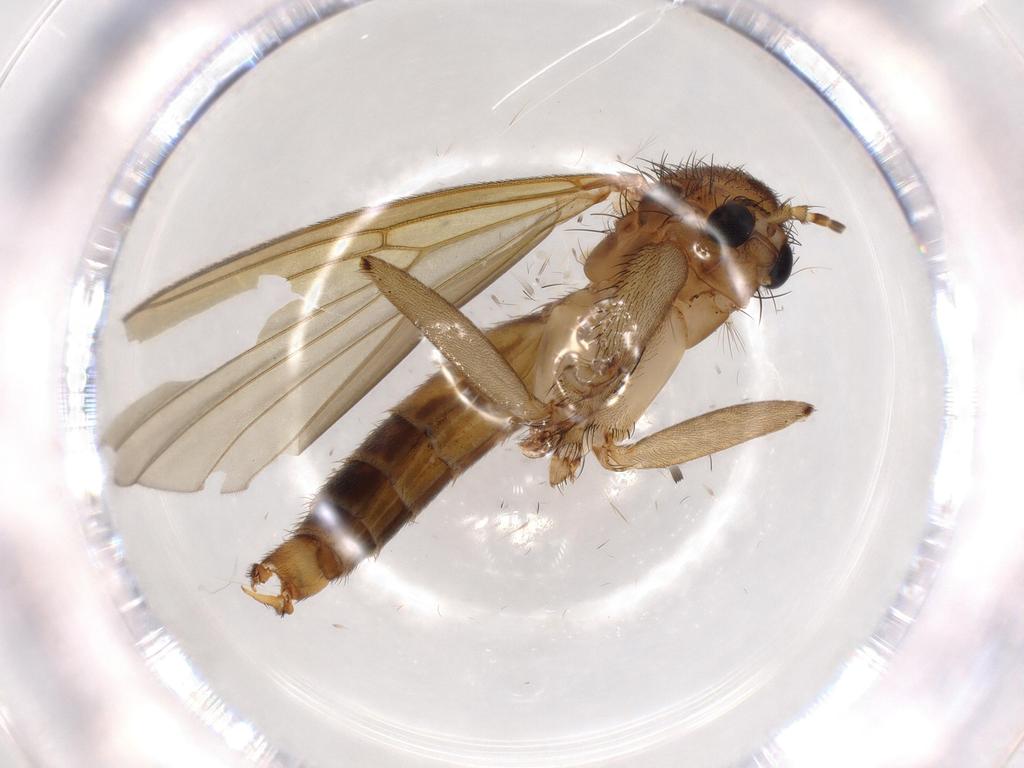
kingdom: Animalia
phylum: Arthropoda
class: Insecta
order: Diptera
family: Mycetophilidae
